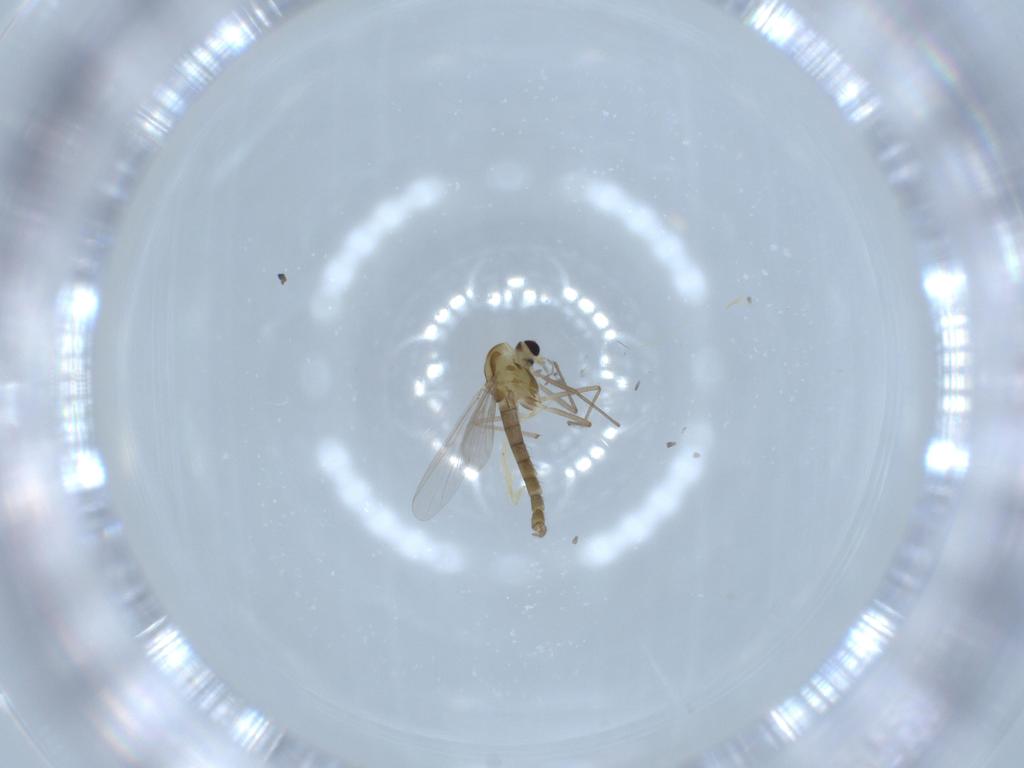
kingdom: Animalia
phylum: Arthropoda
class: Insecta
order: Diptera
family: Chironomidae
